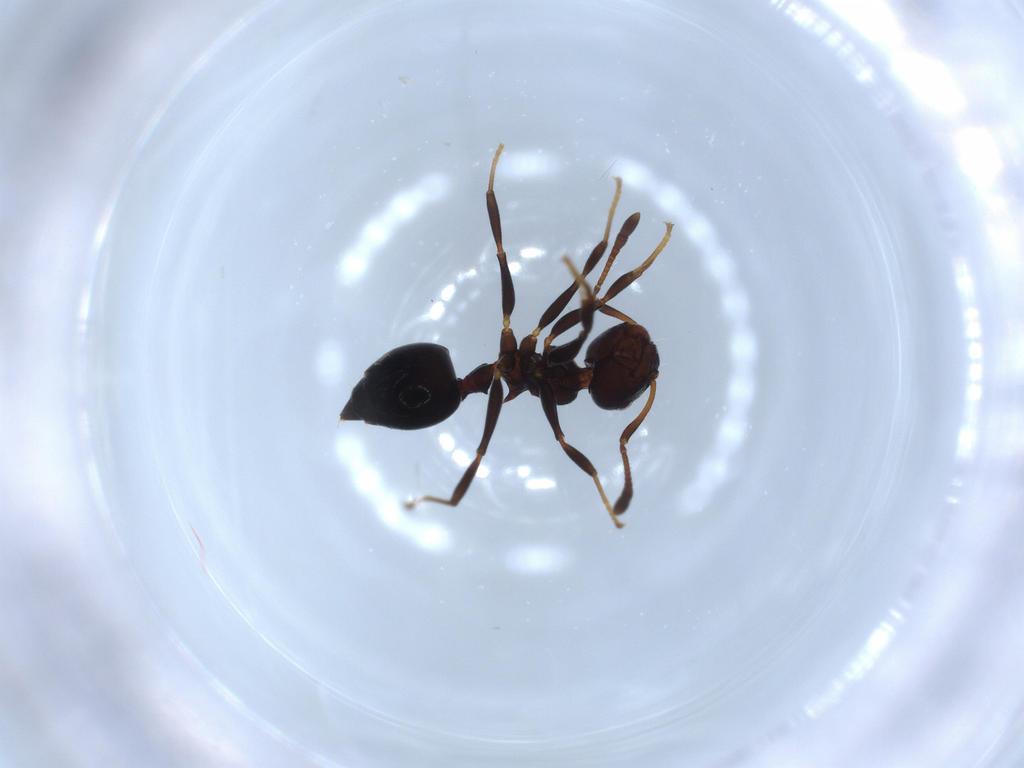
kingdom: Animalia
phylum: Arthropoda
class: Insecta
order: Hymenoptera
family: Formicidae
